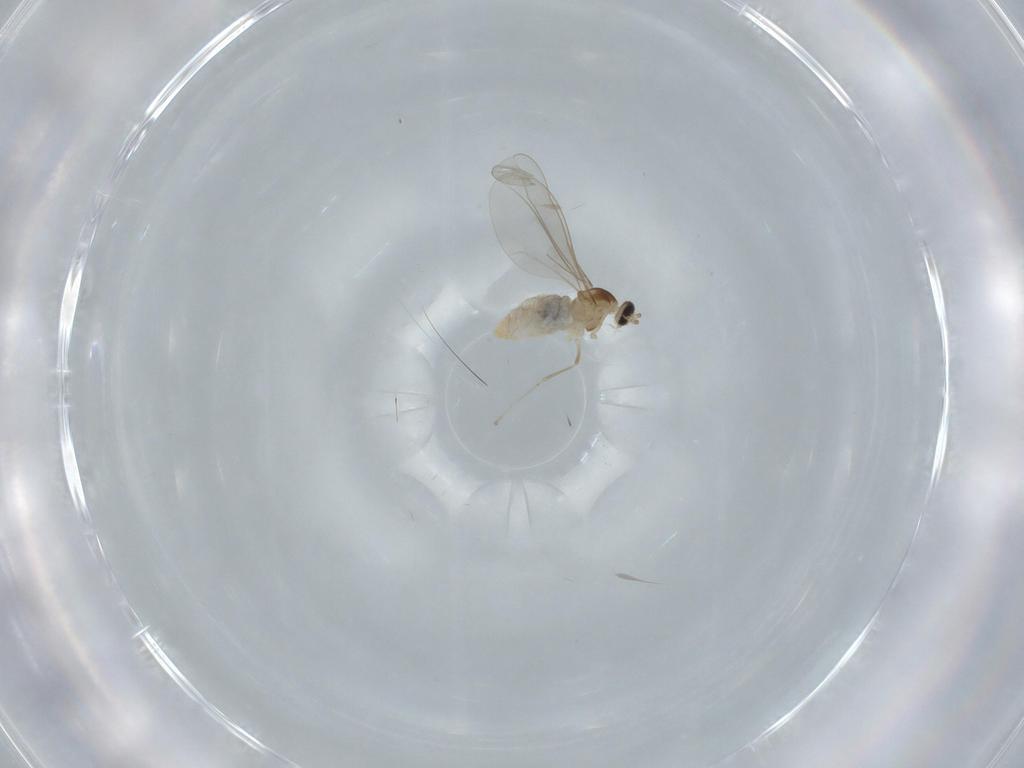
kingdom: Animalia
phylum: Arthropoda
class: Insecta
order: Diptera
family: Cecidomyiidae
